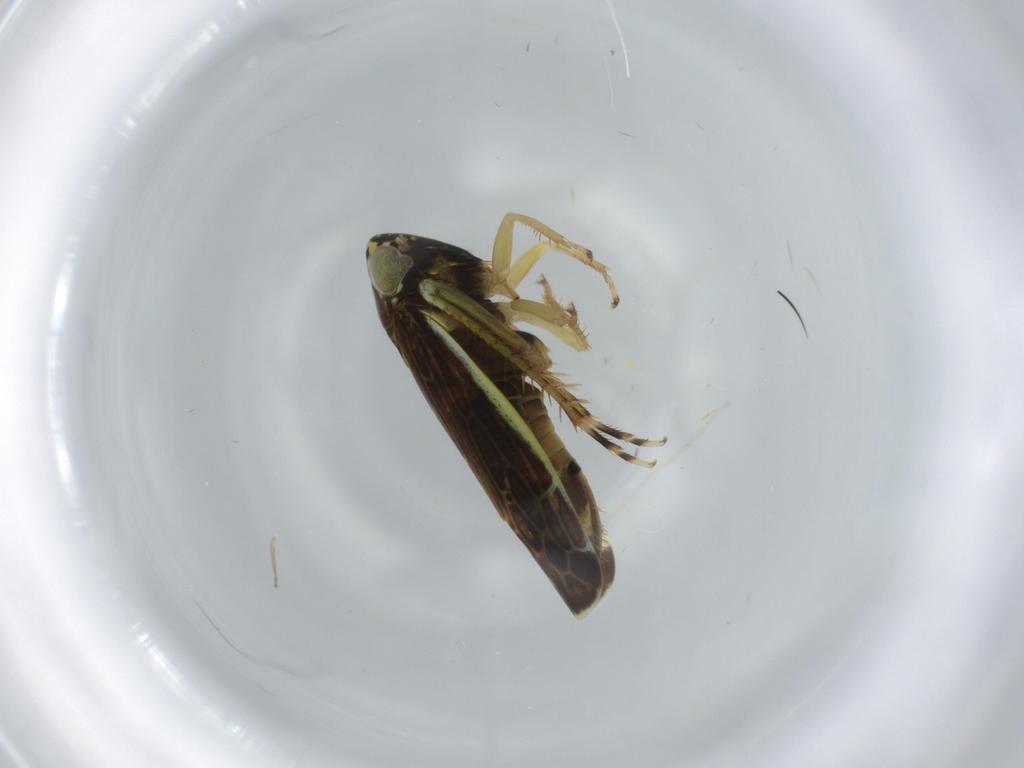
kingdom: Animalia
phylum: Arthropoda
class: Insecta
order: Hemiptera
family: Cicadellidae
